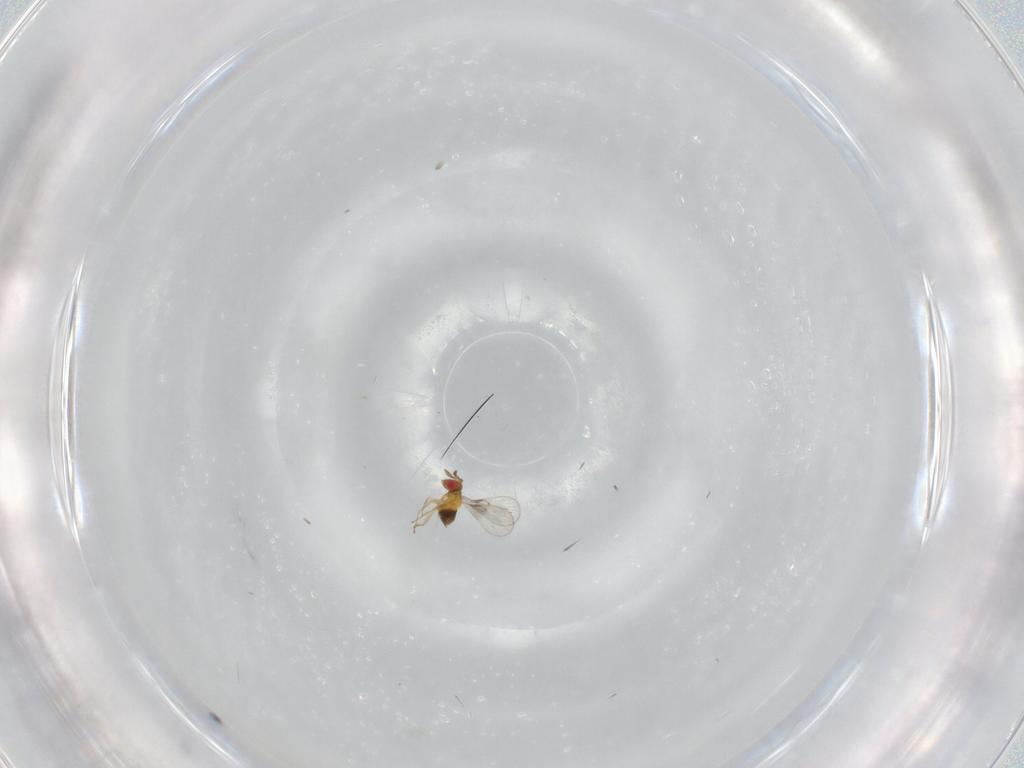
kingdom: Animalia
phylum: Arthropoda
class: Insecta
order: Hymenoptera
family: Trichogrammatidae
